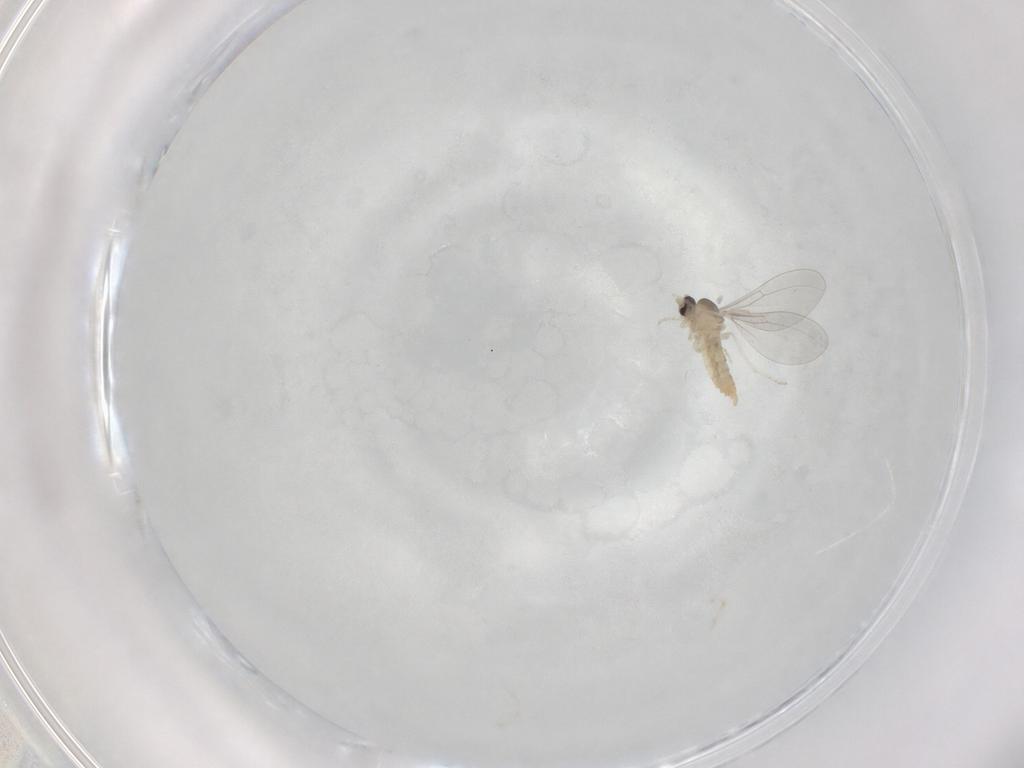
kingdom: Animalia
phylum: Arthropoda
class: Insecta
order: Diptera
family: Cecidomyiidae
